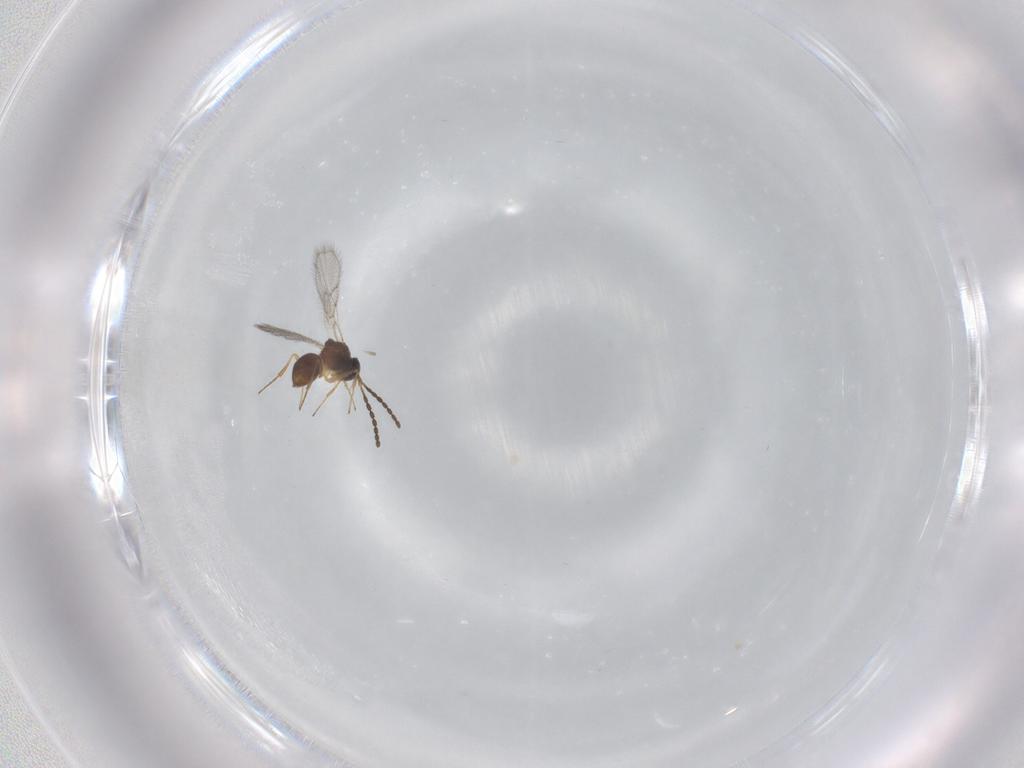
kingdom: Animalia
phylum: Arthropoda
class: Insecta
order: Hymenoptera
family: Figitidae
